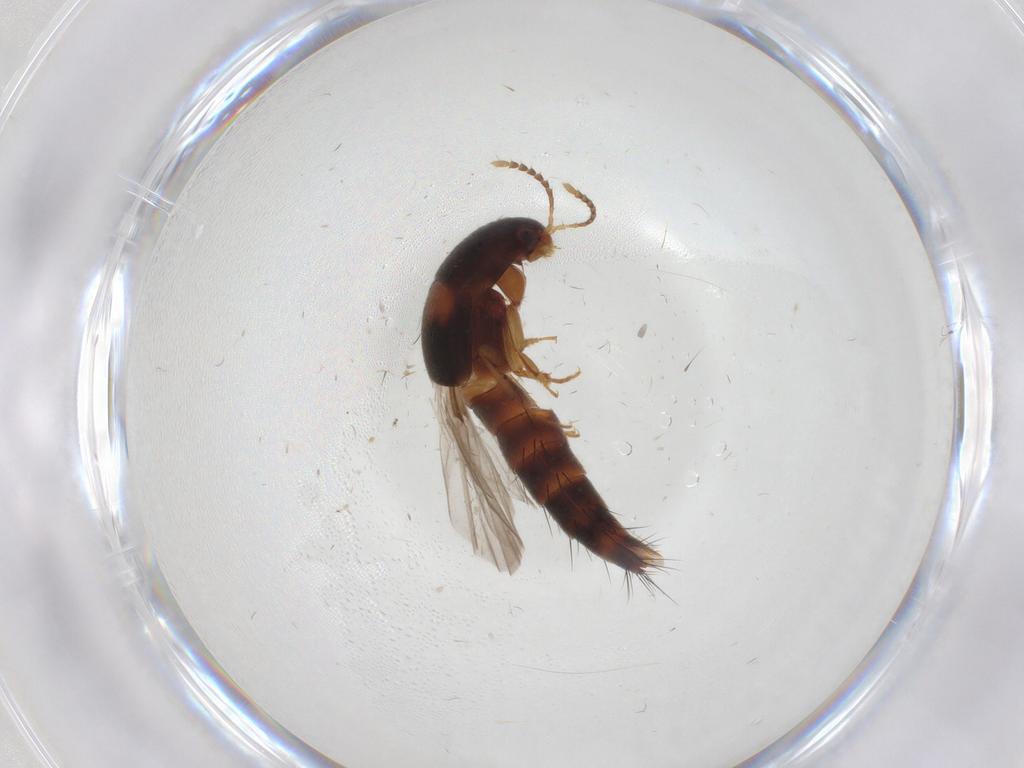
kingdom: Animalia
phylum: Arthropoda
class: Insecta
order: Coleoptera
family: Staphylinidae
